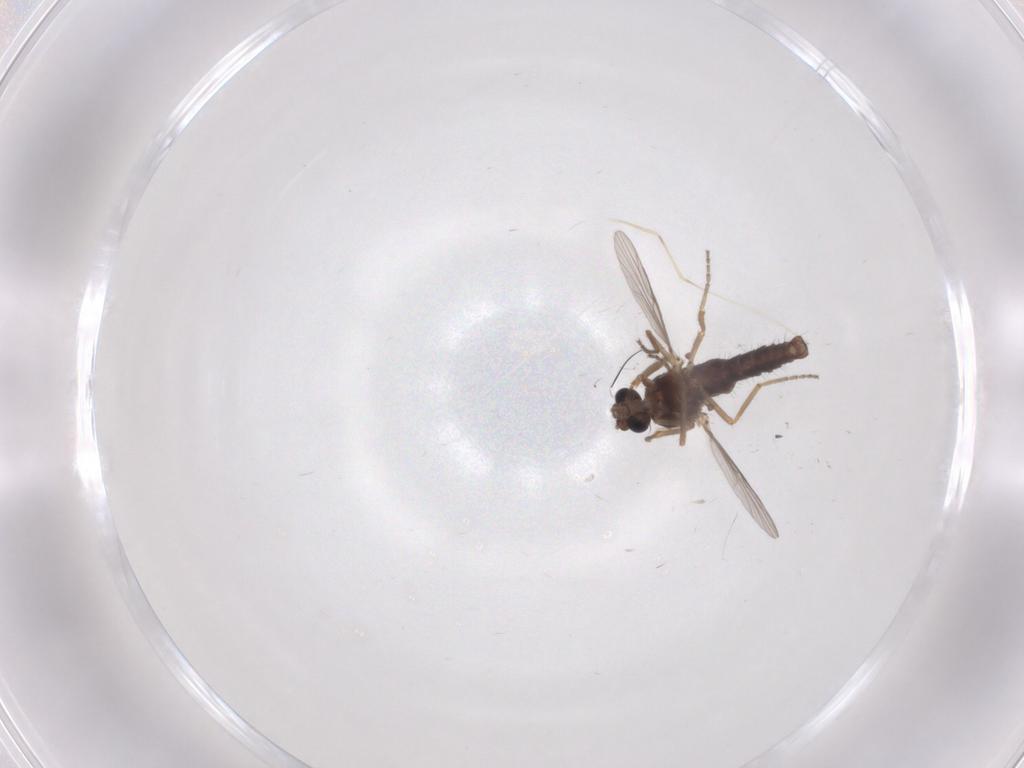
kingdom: Animalia
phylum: Arthropoda
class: Insecta
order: Diptera
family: Ceratopogonidae
